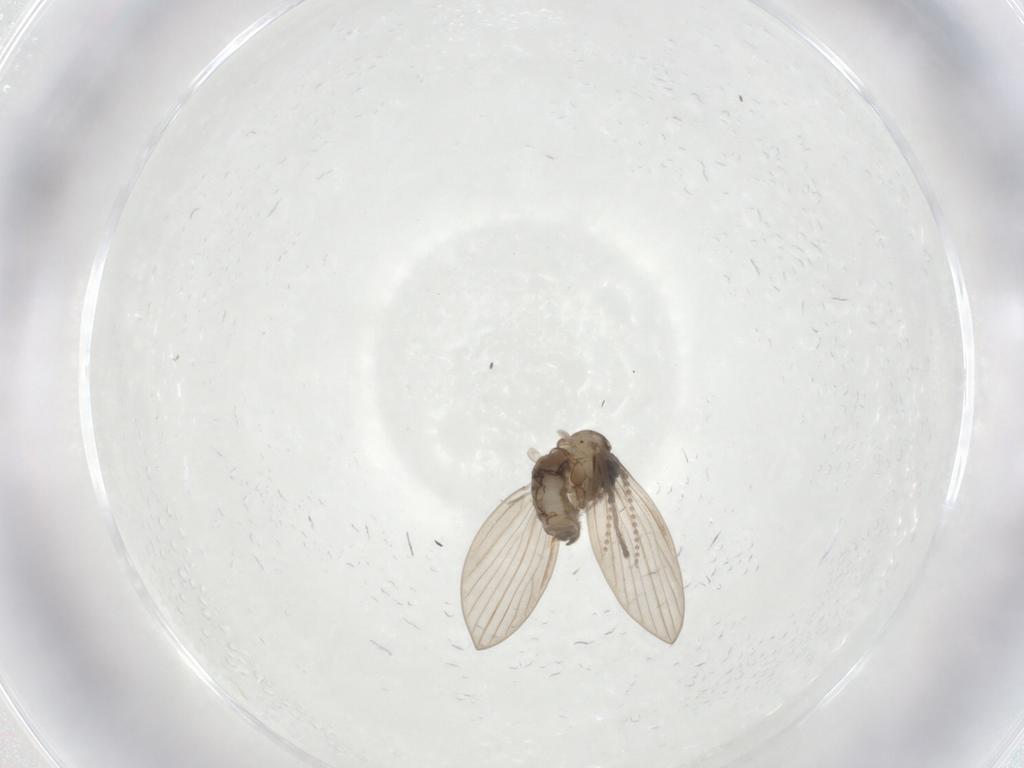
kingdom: Animalia
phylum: Arthropoda
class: Insecta
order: Diptera
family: Psychodidae
